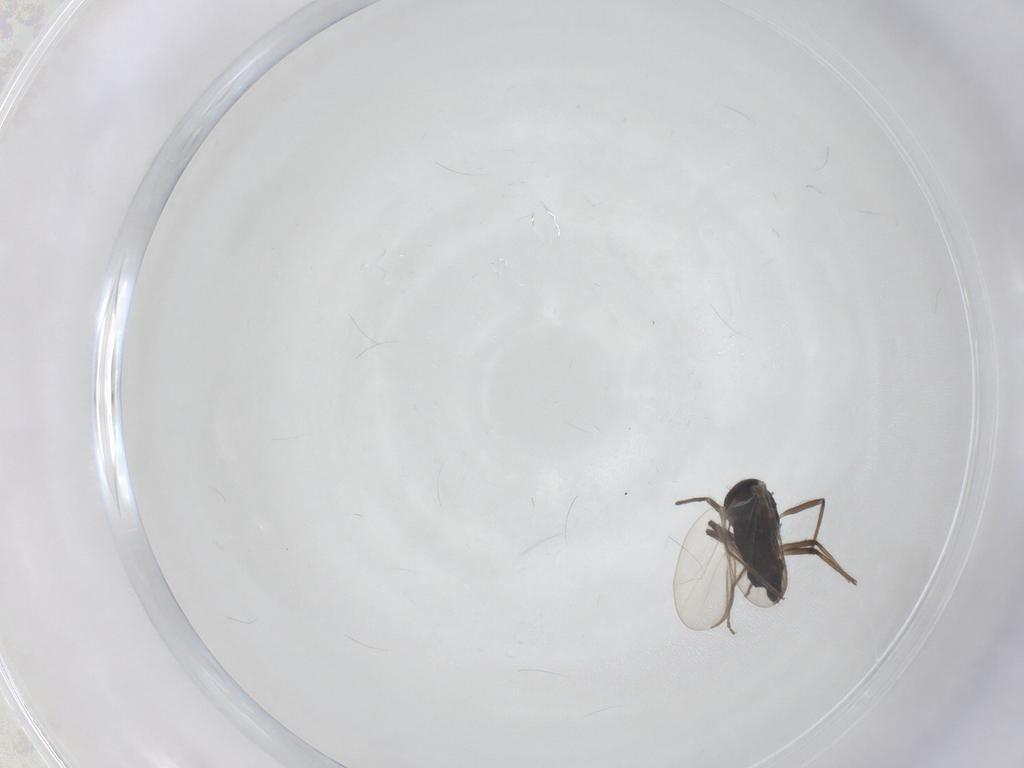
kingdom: Animalia
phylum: Arthropoda
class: Insecta
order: Diptera
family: Chironomidae
